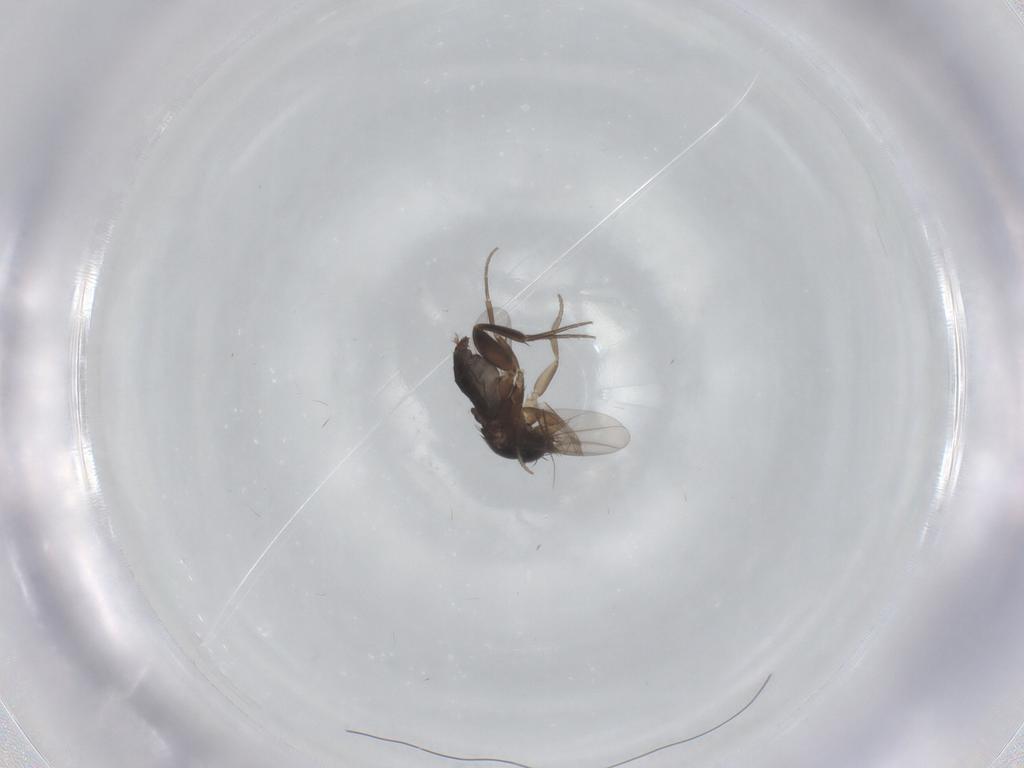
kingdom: Animalia
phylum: Arthropoda
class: Insecta
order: Diptera
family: Phoridae
